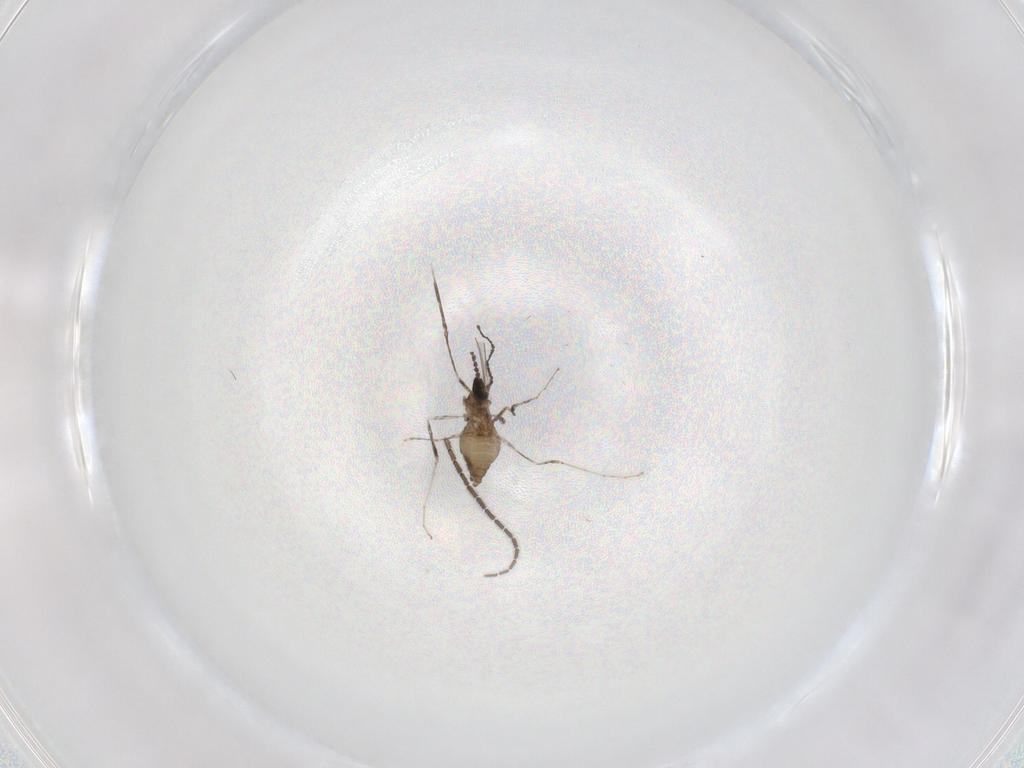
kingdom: Animalia
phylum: Arthropoda
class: Insecta
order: Diptera
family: Cecidomyiidae
